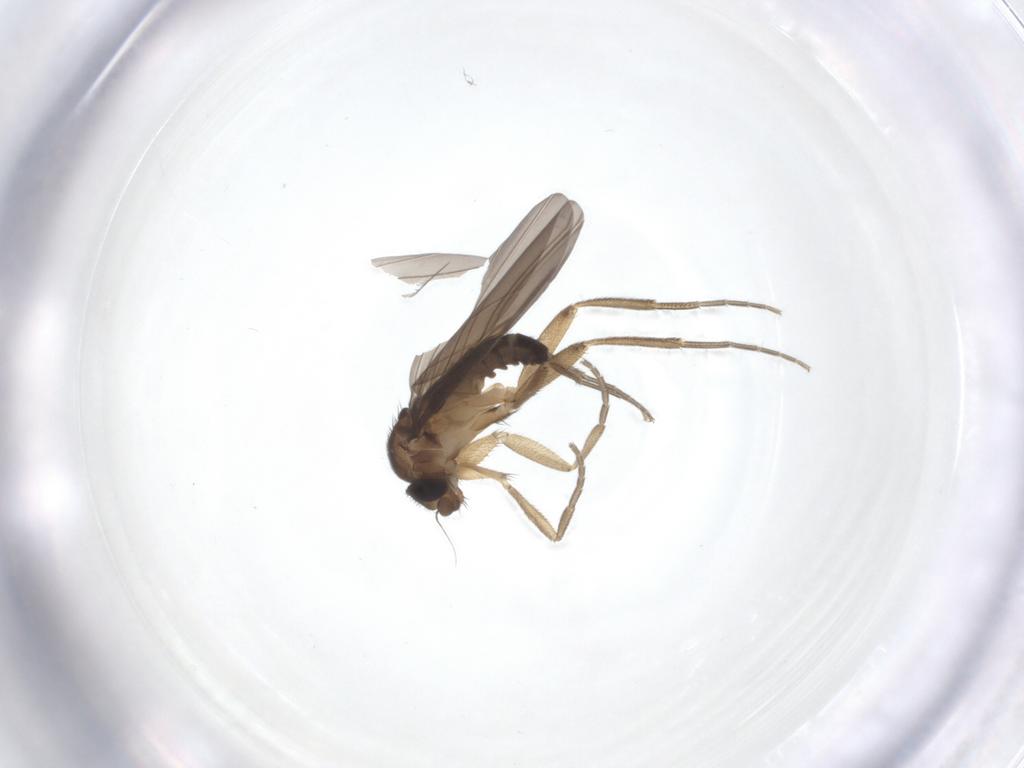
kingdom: Animalia
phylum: Arthropoda
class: Insecta
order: Diptera
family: Phoridae
